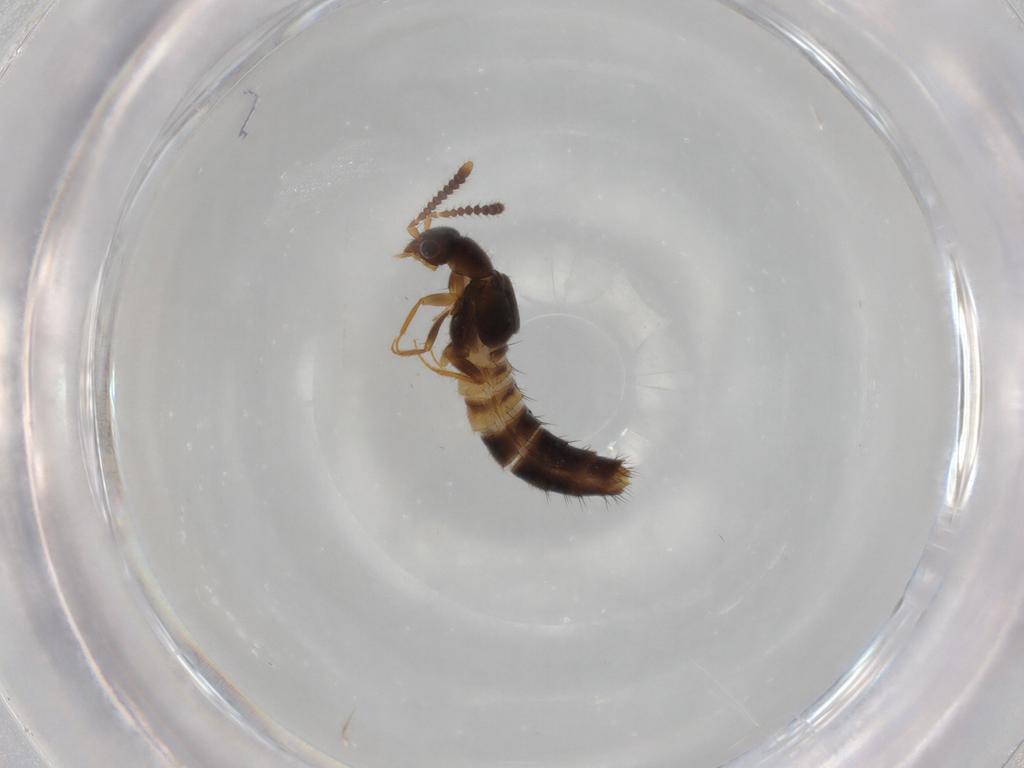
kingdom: Animalia
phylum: Arthropoda
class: Insecta
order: Coleoptera
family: Staphylinidae
